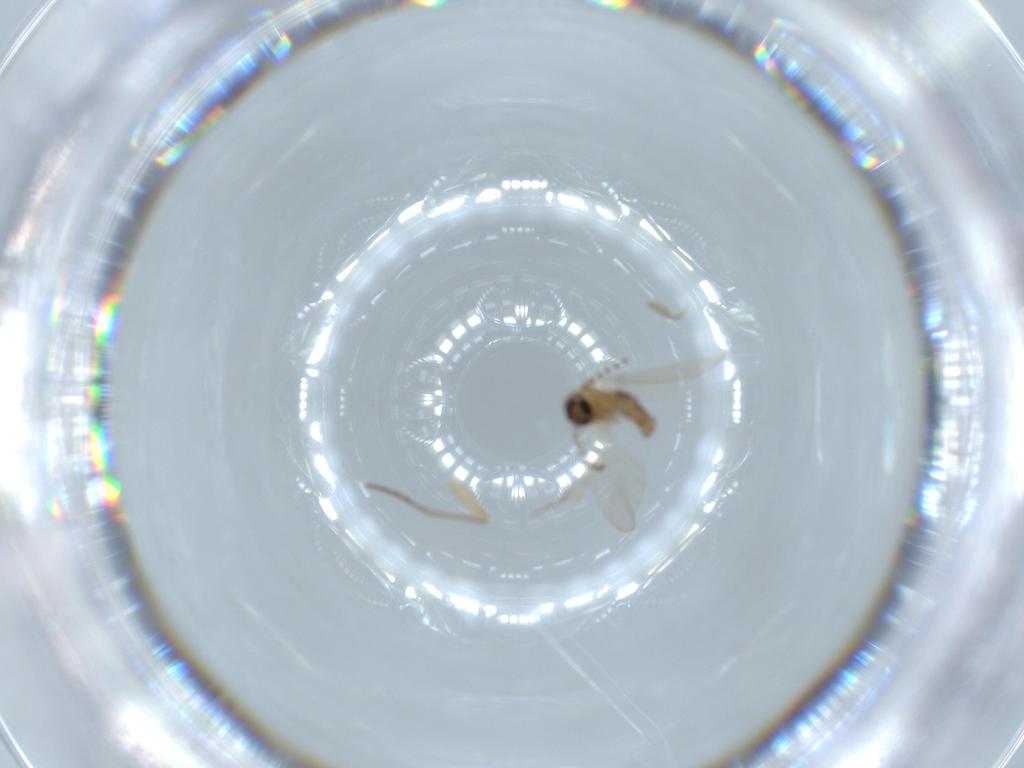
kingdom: Animalia
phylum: Arthropoda
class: Insecta
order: Diptera
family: Psychodidae
